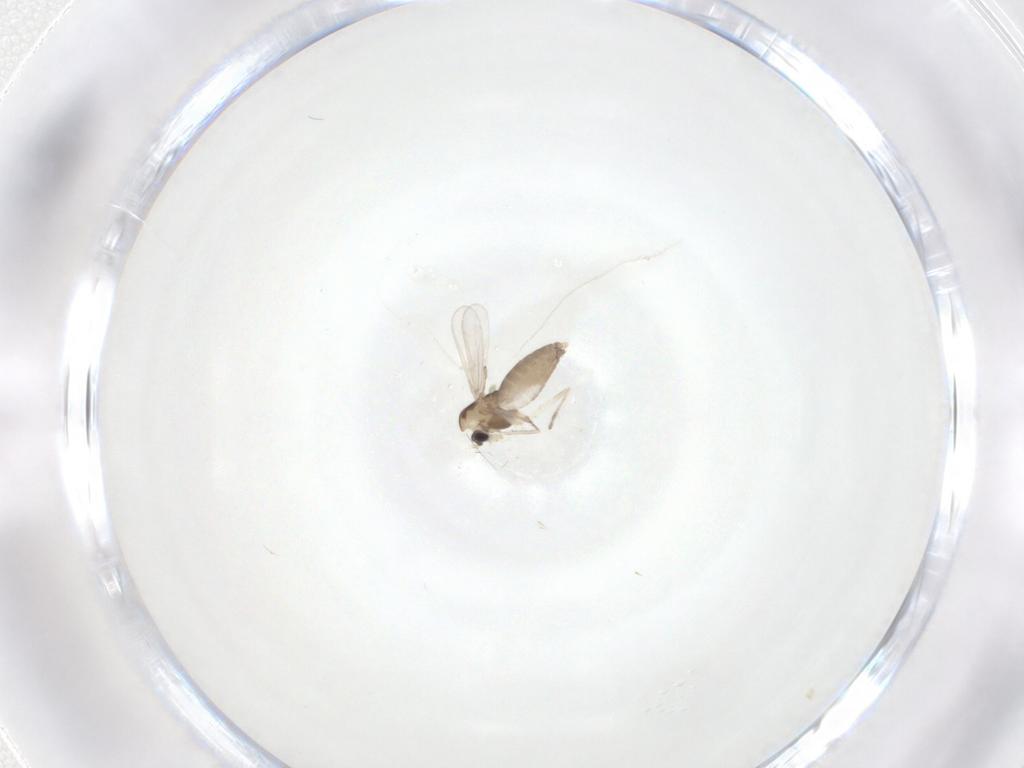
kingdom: Animalia
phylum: Arthropoda
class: Insecta
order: Diptera
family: Chironomidae
